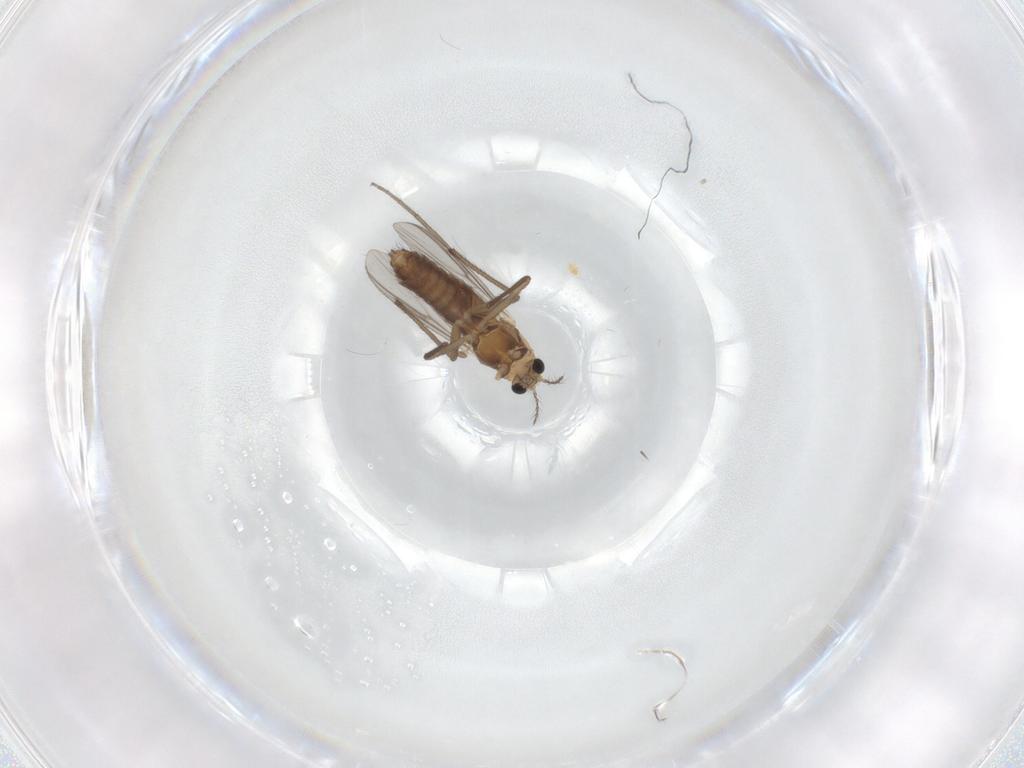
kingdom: Animalia
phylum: Arthropoda
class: Insecta
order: Diptera
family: Chironomidae
